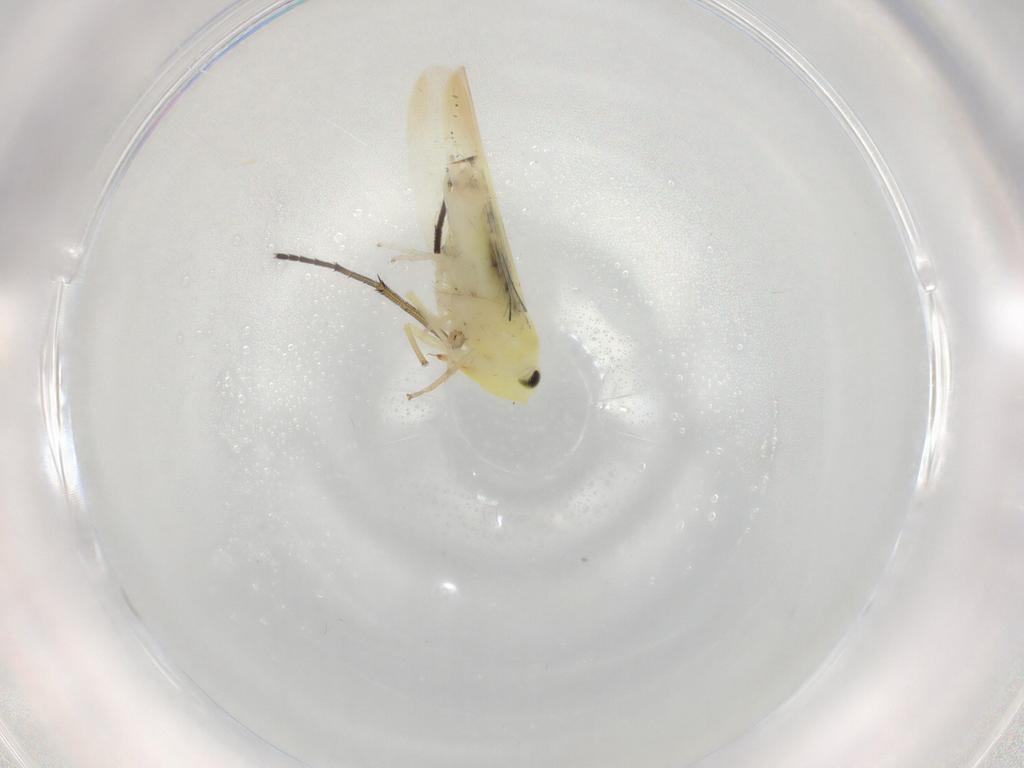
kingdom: Animalia
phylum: Arthropoda
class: Insecta
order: Hemiptera
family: Cicadellidae
